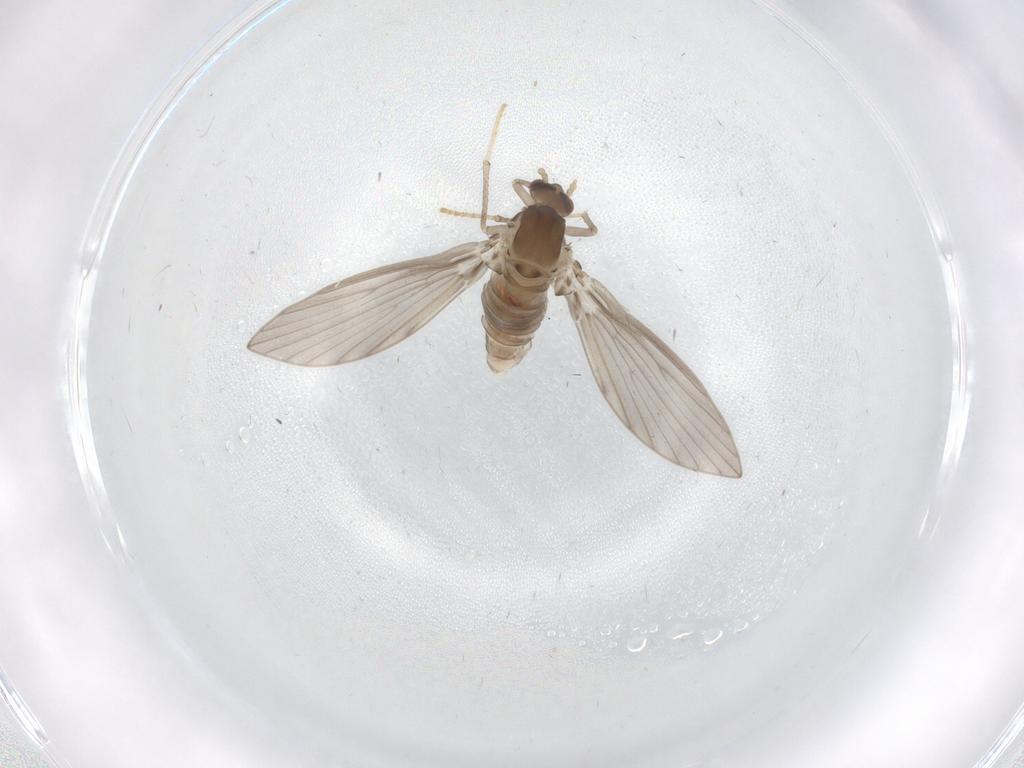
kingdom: Animalia
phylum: Arthropoda
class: Insecta
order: Diptera
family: Phoridae
